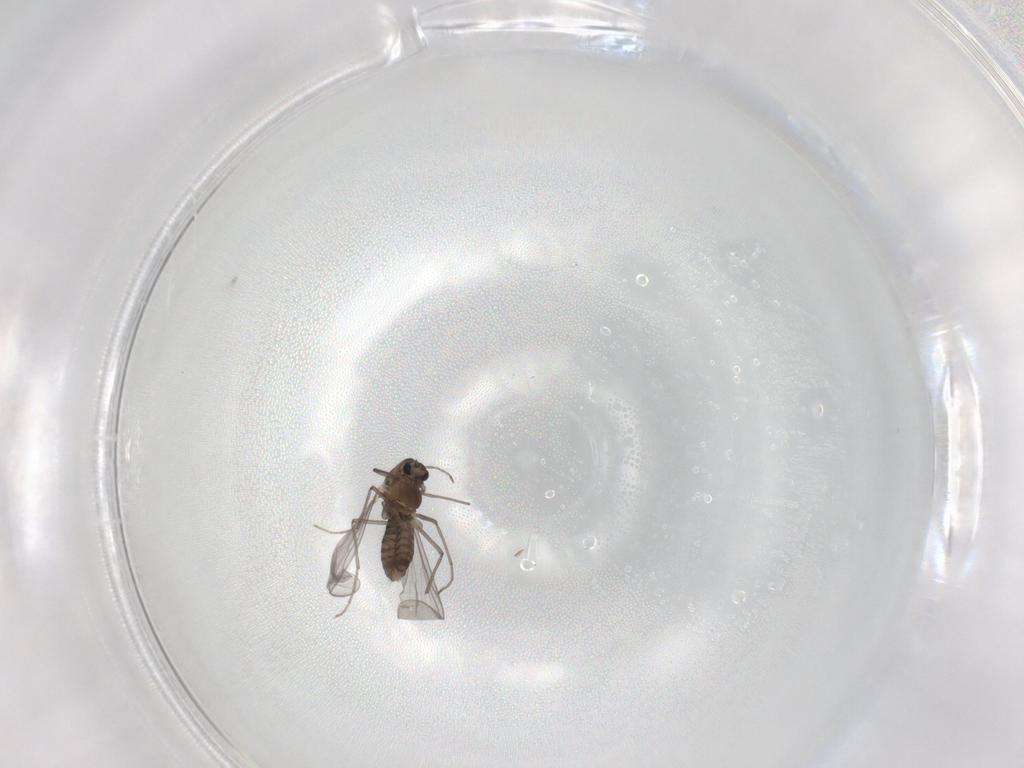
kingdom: Animalia
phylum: Arthropoda
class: Insecta
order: Diptera
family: Chironomidae
